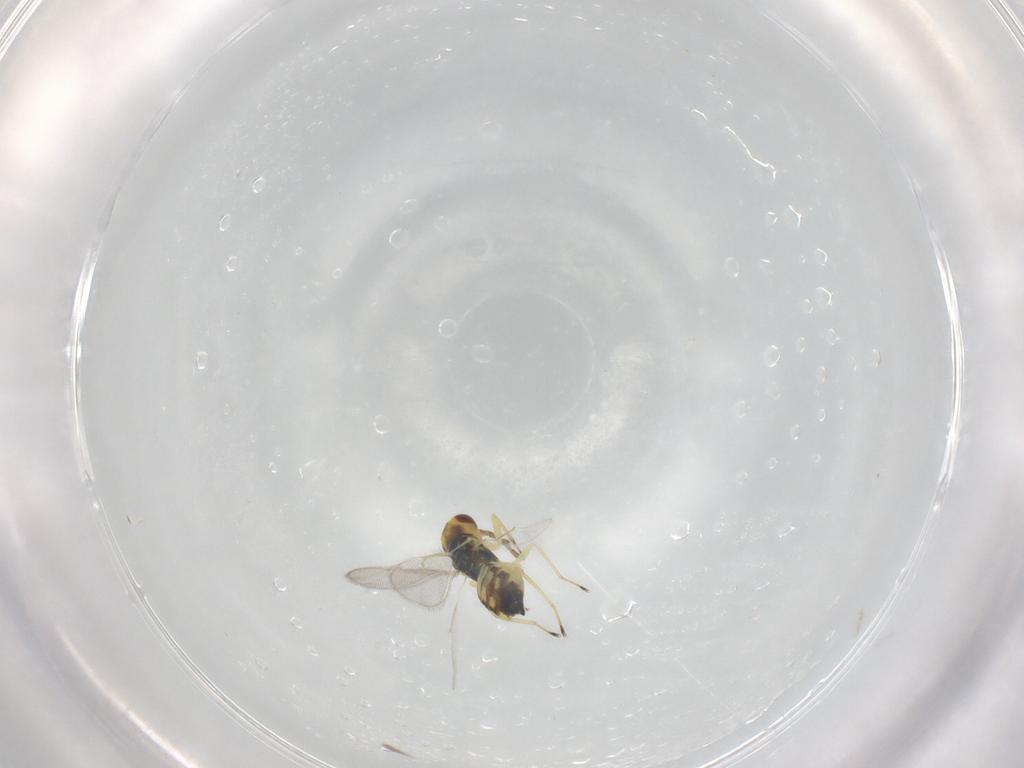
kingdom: Animalia
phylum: Arthropoda
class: Insecta
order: Hymenoptera
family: Eulophidae
